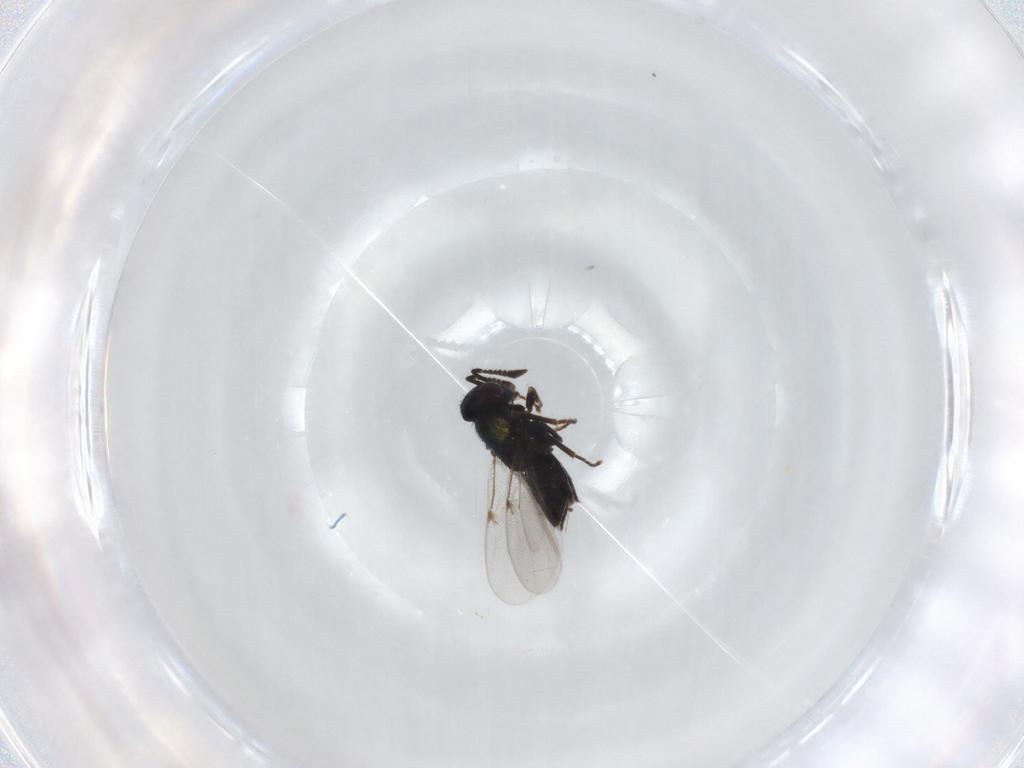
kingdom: Animalia
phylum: Arthropoda
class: Insecta
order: Hymenoptera
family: Encyrtidae
